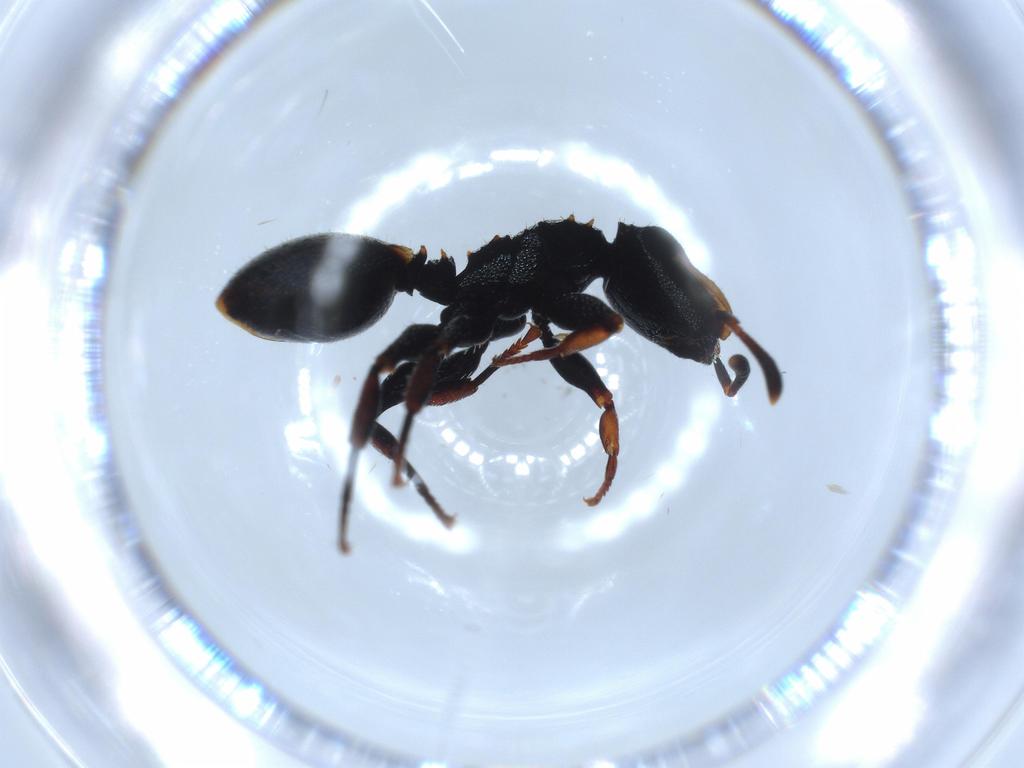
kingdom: Animalia
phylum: Arthropoda
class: Insecta
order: Hymenoptera
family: Formicidae
